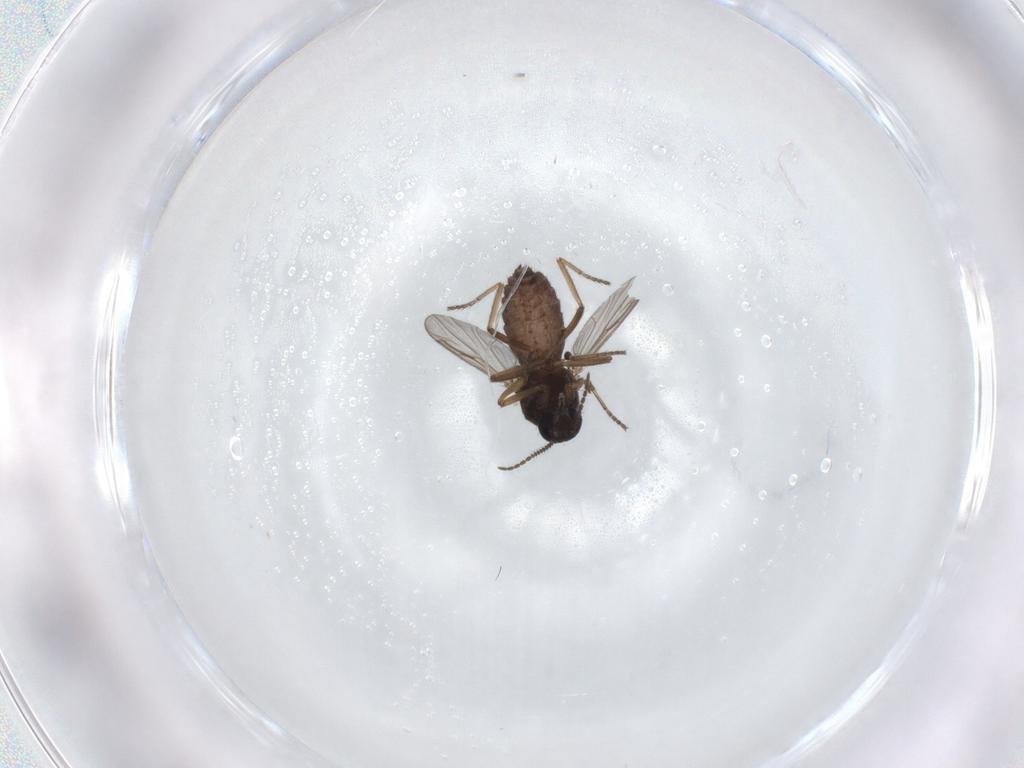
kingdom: Animalia
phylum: Arthropoda
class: Insecta
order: Diptera
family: Ceratopogonidae
